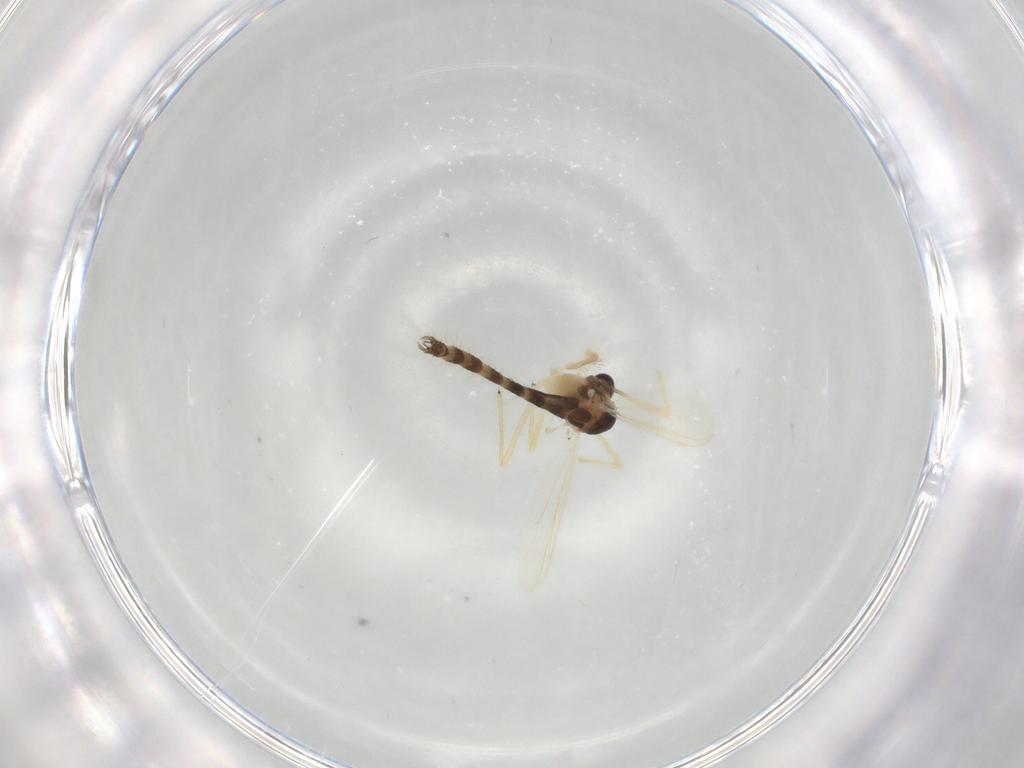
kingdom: Animalia
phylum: Arthropoda
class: Insecta
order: Diptera
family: Chironomidae
